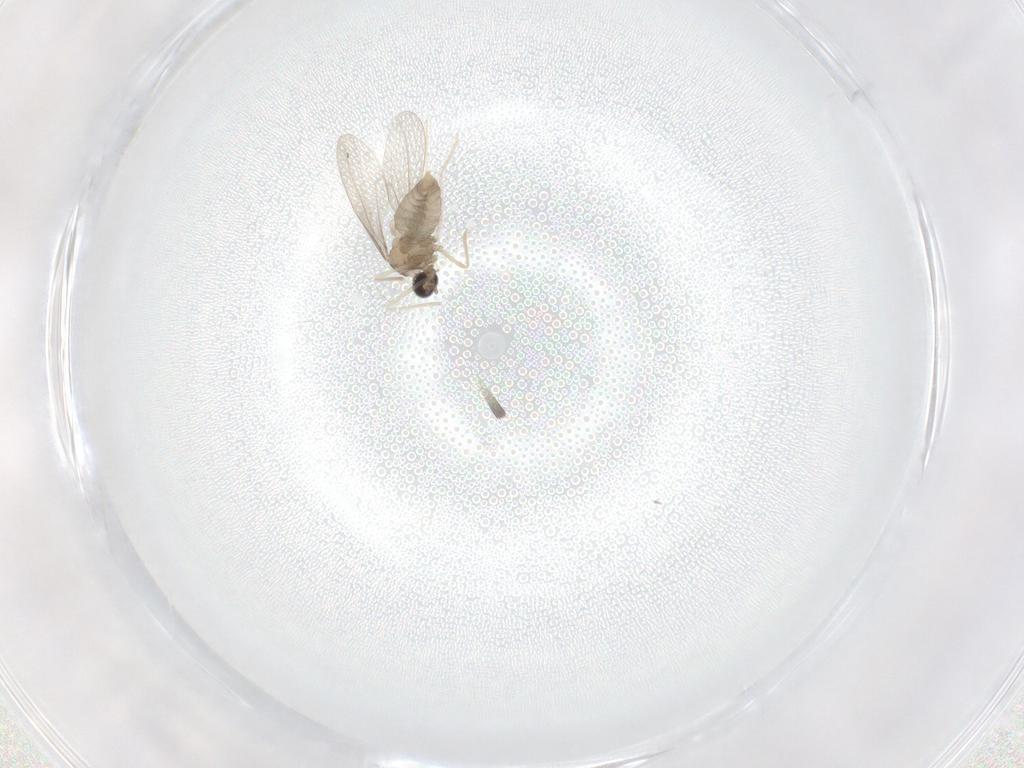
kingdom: Animalia
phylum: Arthropoda
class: Insecta
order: Diptera
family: Cecidomyiidae
